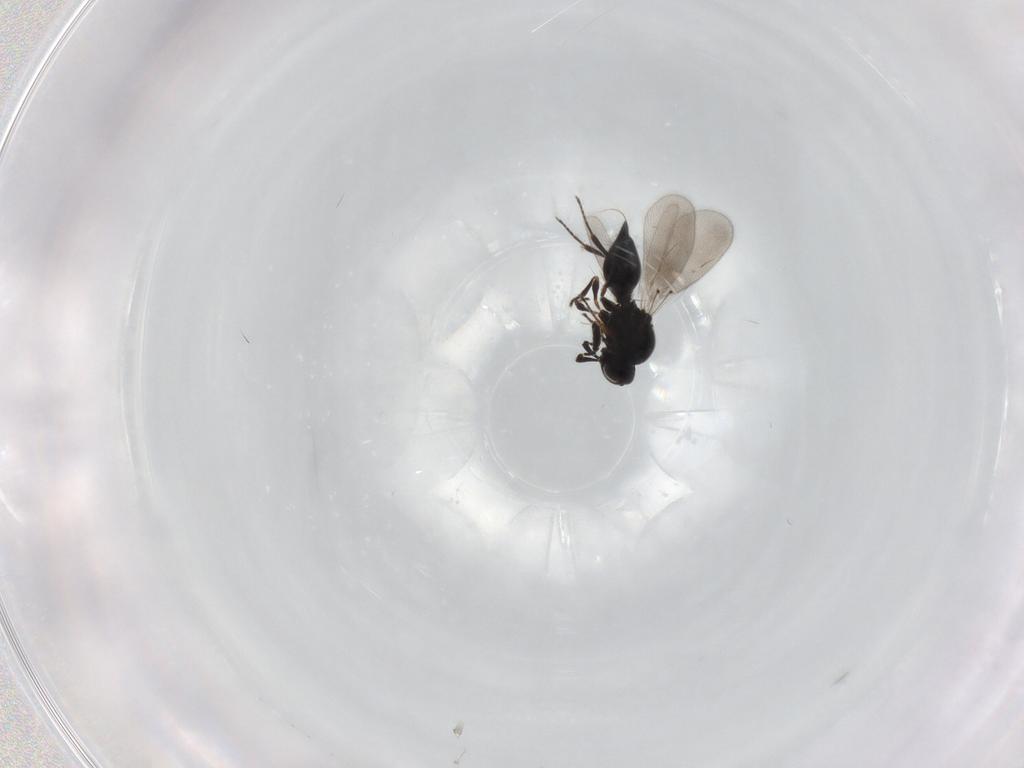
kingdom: Animalia
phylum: Arthropoda
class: Insecta
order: Hymenoptera
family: Platygastridae
